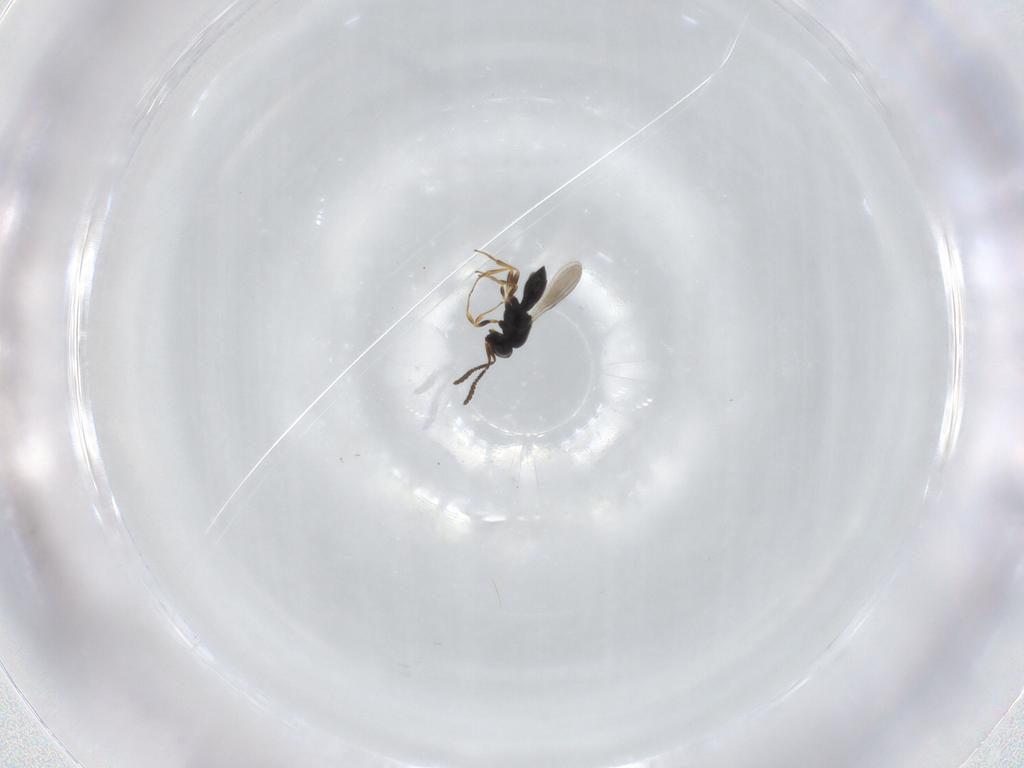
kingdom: Animalia
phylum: Arthropoda
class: Insecta
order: Hymenoptera
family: Scelionidae
